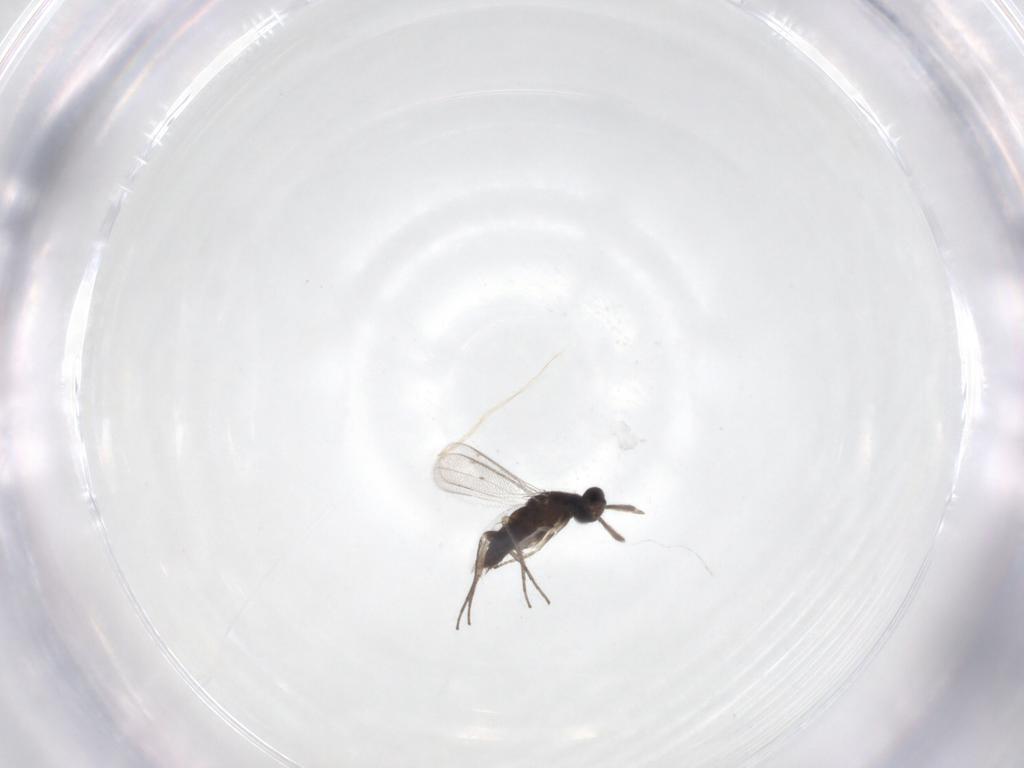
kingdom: Animalia
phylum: Arthropoda
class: Insecta
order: Hymenoptera
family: Eulophidae
